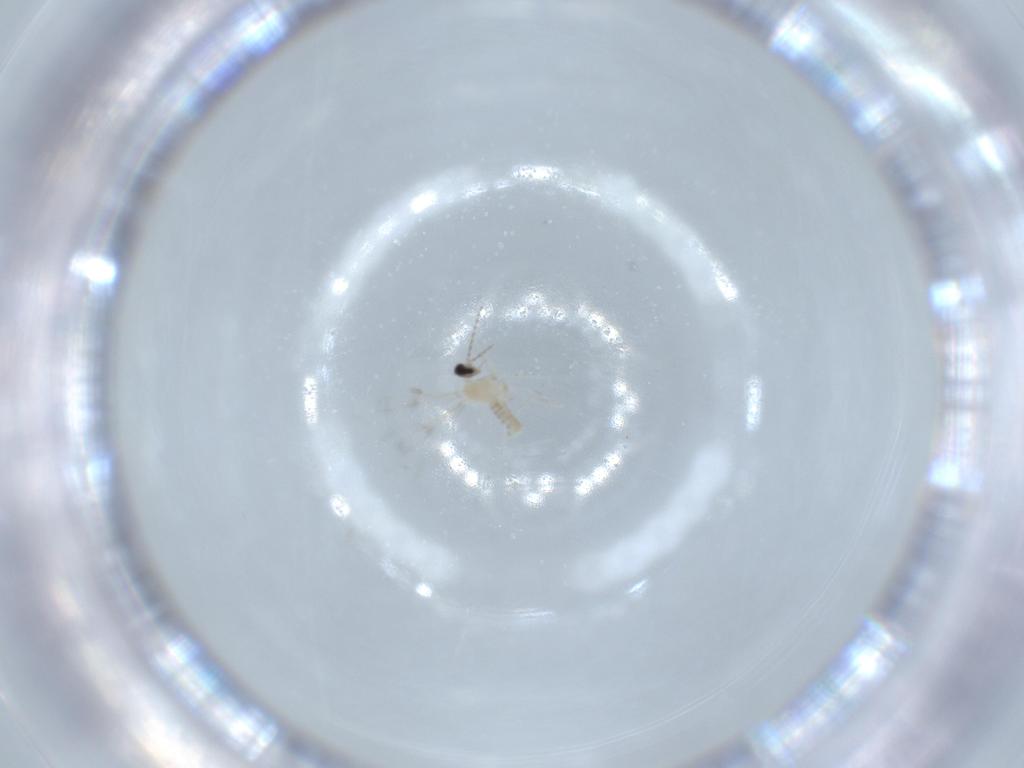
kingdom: Animalia
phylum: Arthropoda
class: Insecta
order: Diptera
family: Cecidomyiidae
